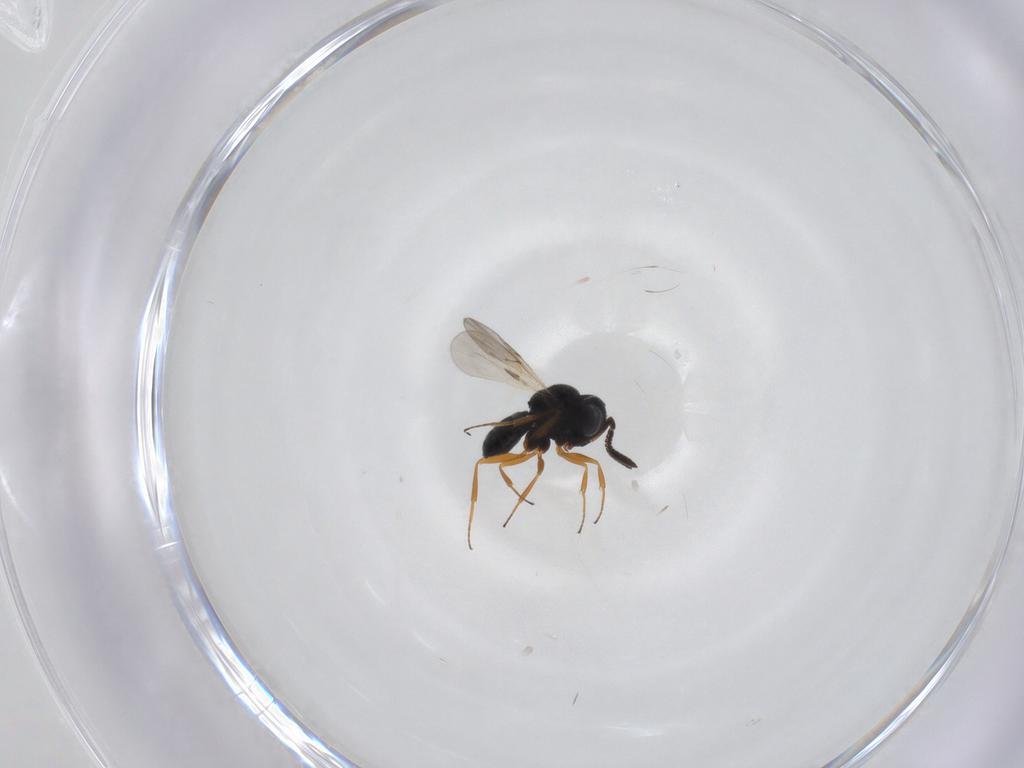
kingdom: Animalia
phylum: Arthropoda
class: Insecta
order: Hymenoptera
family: Scelionidae
